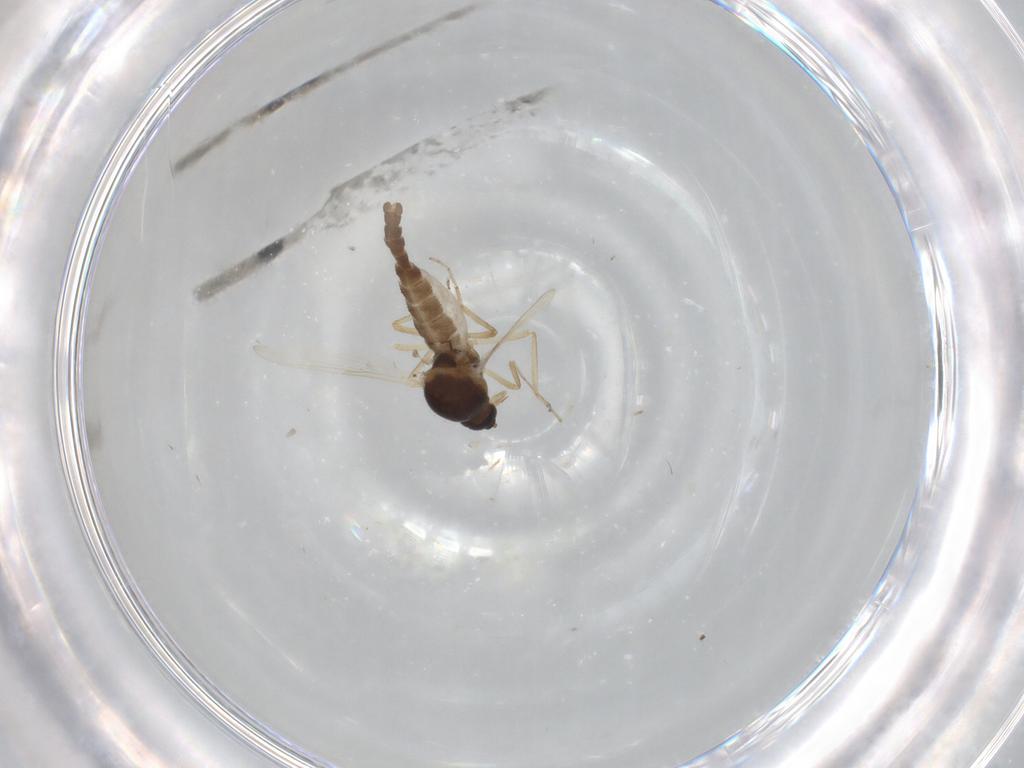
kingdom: Animalia
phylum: Arthropoda
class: Insecta
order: Diptera
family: Ceratopogonidae
